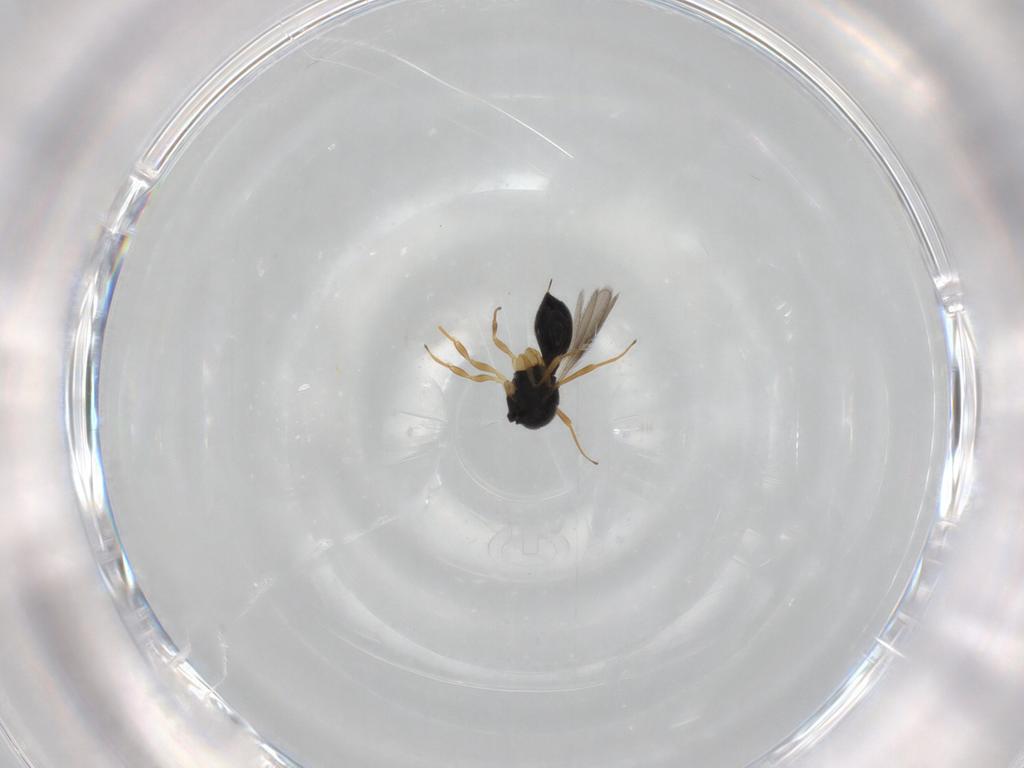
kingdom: Animalia
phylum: Arthropoda
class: Insecta
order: Hymenoptera
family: Scelionidae
